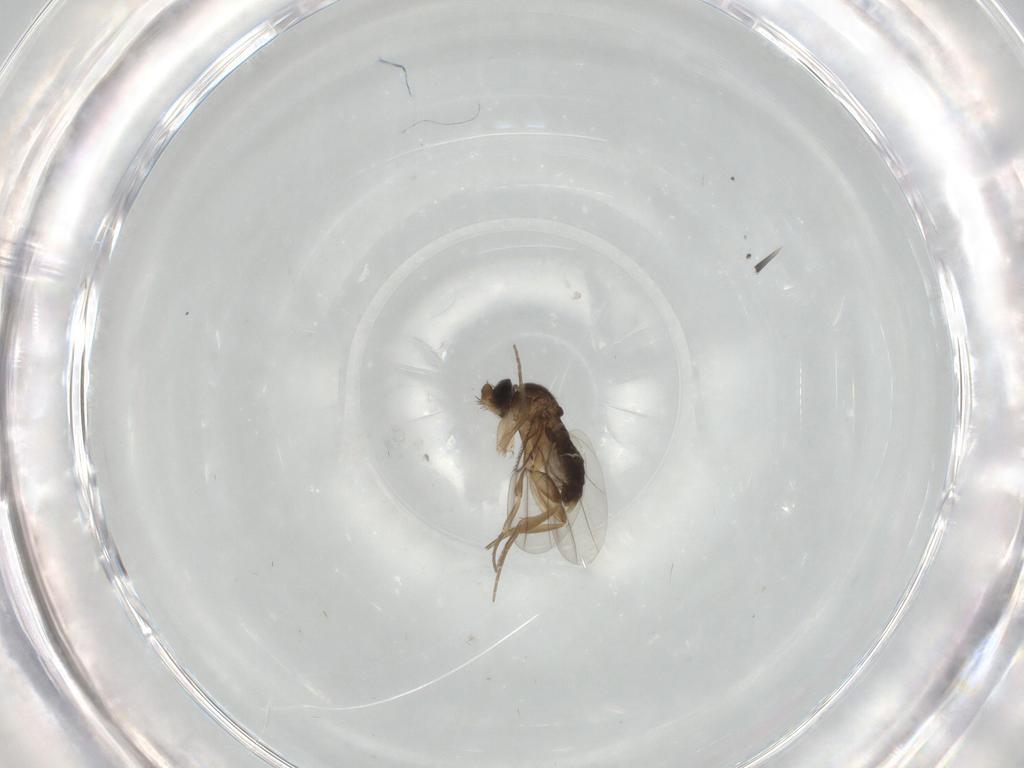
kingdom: Animalia
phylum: Arthropoda
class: Insecta
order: Diptera
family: Phoridae
